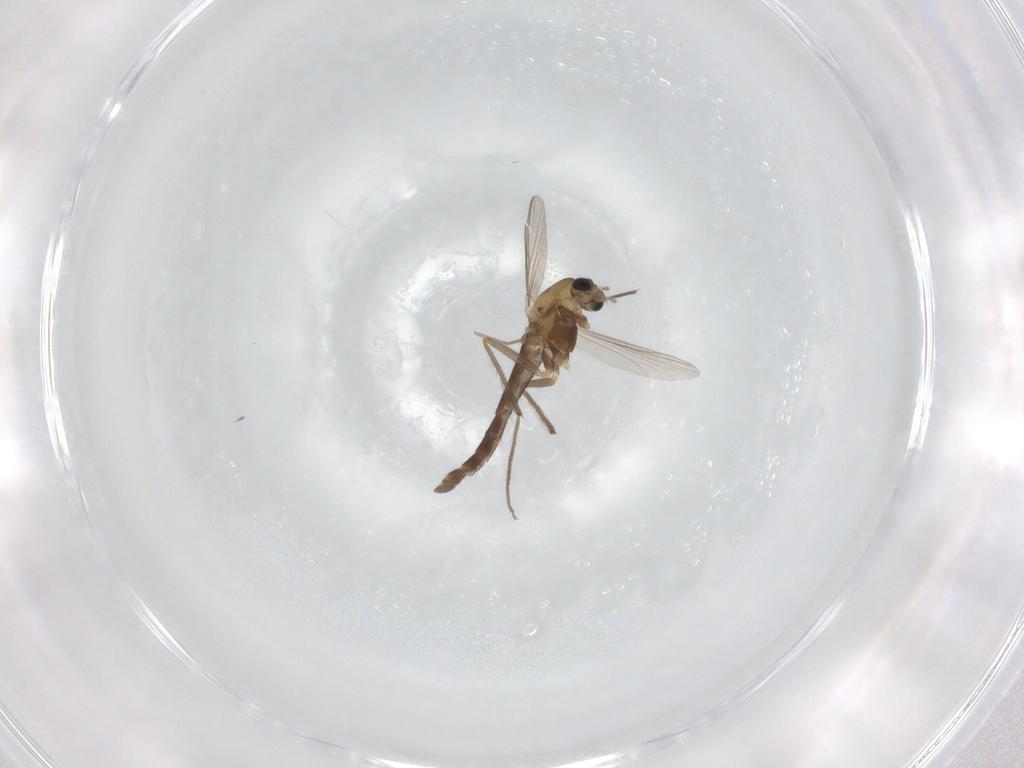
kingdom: Animalia
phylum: Arthropoda
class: Insecta
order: Diptera
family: Chironomidae
